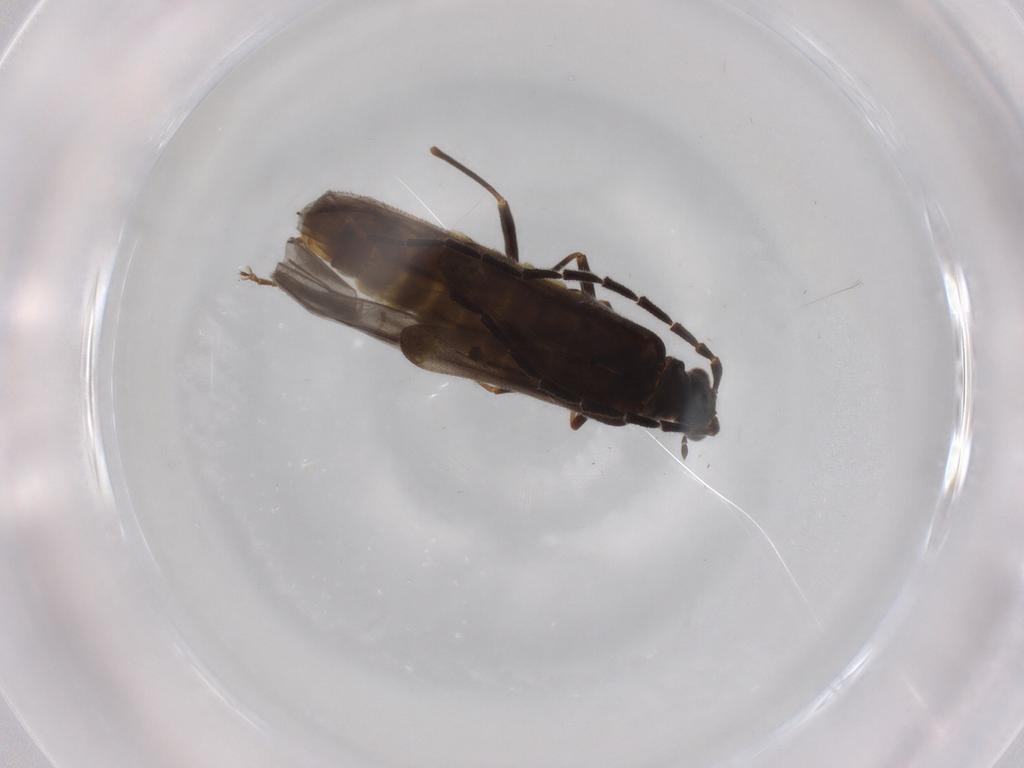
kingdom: Animalia
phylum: Arthropoda
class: Insecta
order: Coleoptera
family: Cantharidae
